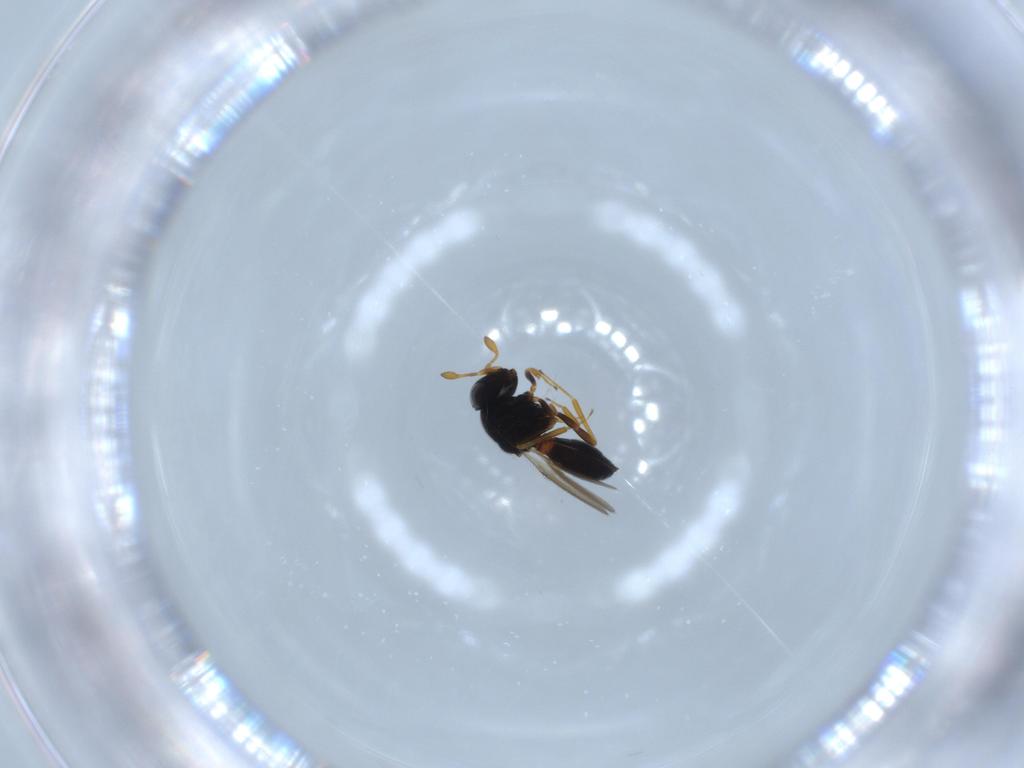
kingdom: Animalia
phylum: Arthropoda
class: Insecta
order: Hymenoptera
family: Scelionidae
